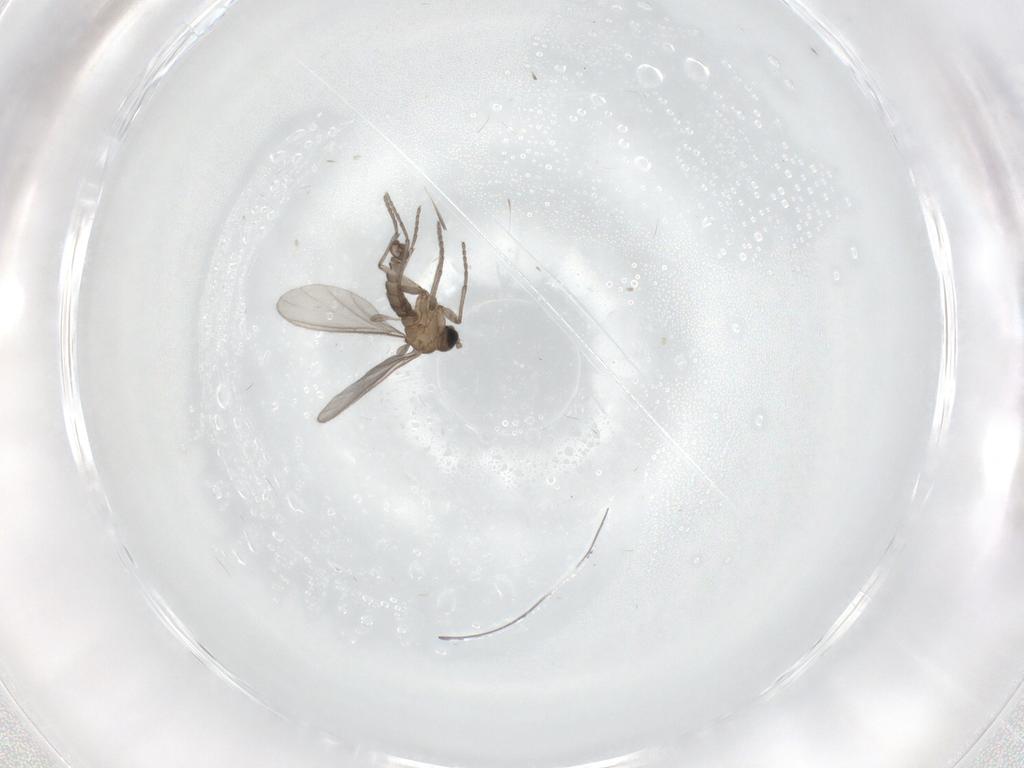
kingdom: Animalia
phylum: Arthropoda
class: Insecta
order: Diptera
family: Sciaridae
